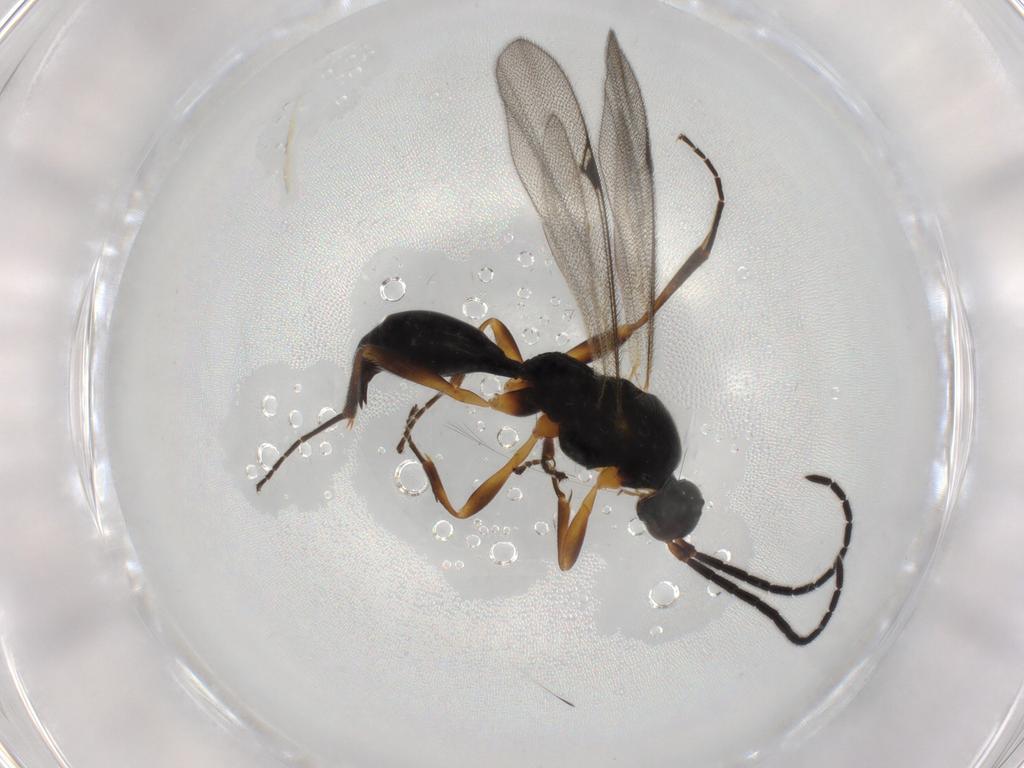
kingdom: Animalia
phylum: Arthropoda
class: Insecta
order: Hymenoptera
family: Proctotrupidae
